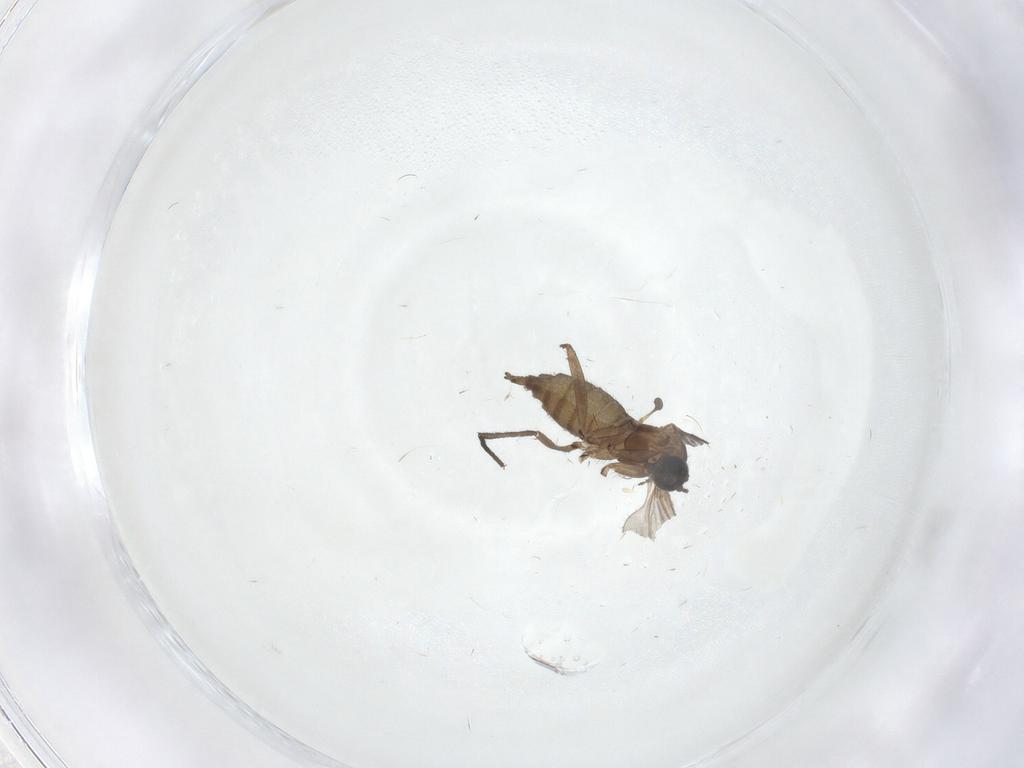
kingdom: Animalia
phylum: Arthropoda
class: Insecta
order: Diptera
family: Sciaridae
